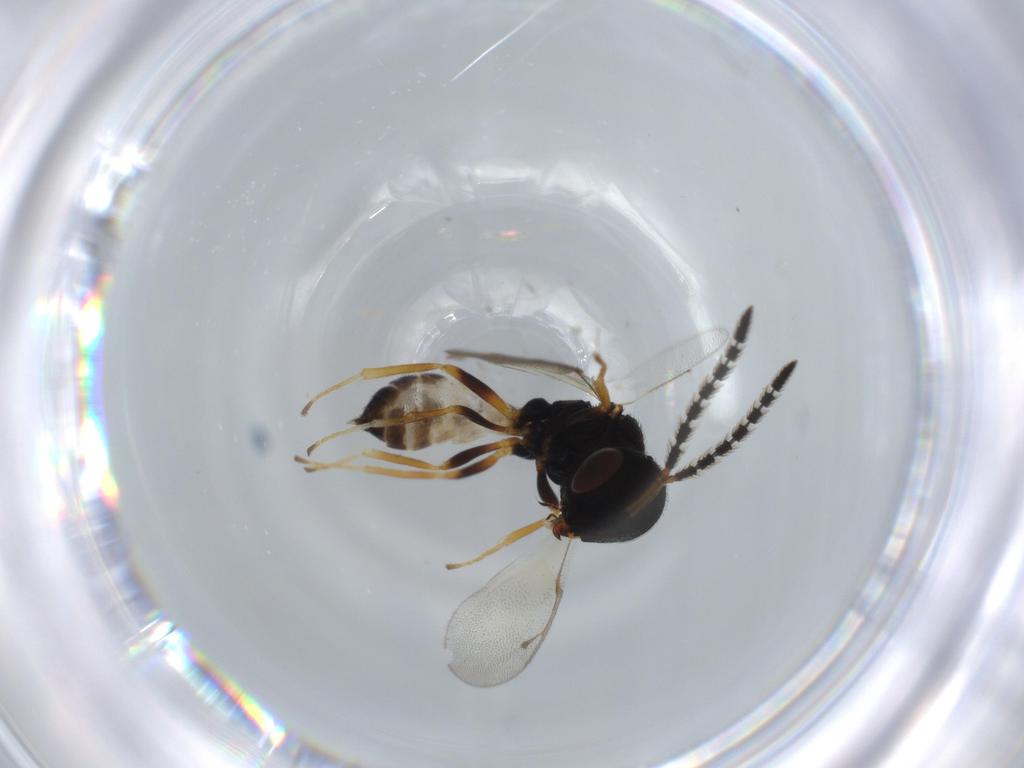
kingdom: Animalia
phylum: Arthropoda
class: Insecta
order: Hymenoptera
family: Pteromalidae
